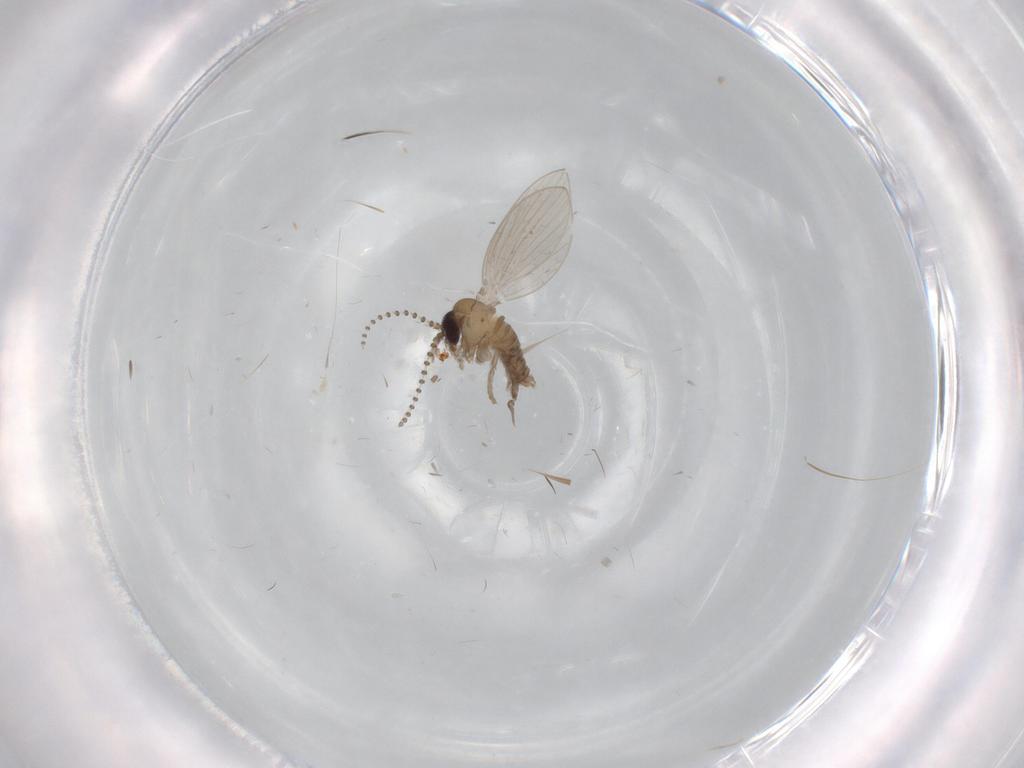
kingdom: Animalia
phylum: Arthropoda
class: Insecta
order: Diptera
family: Psychodidae
